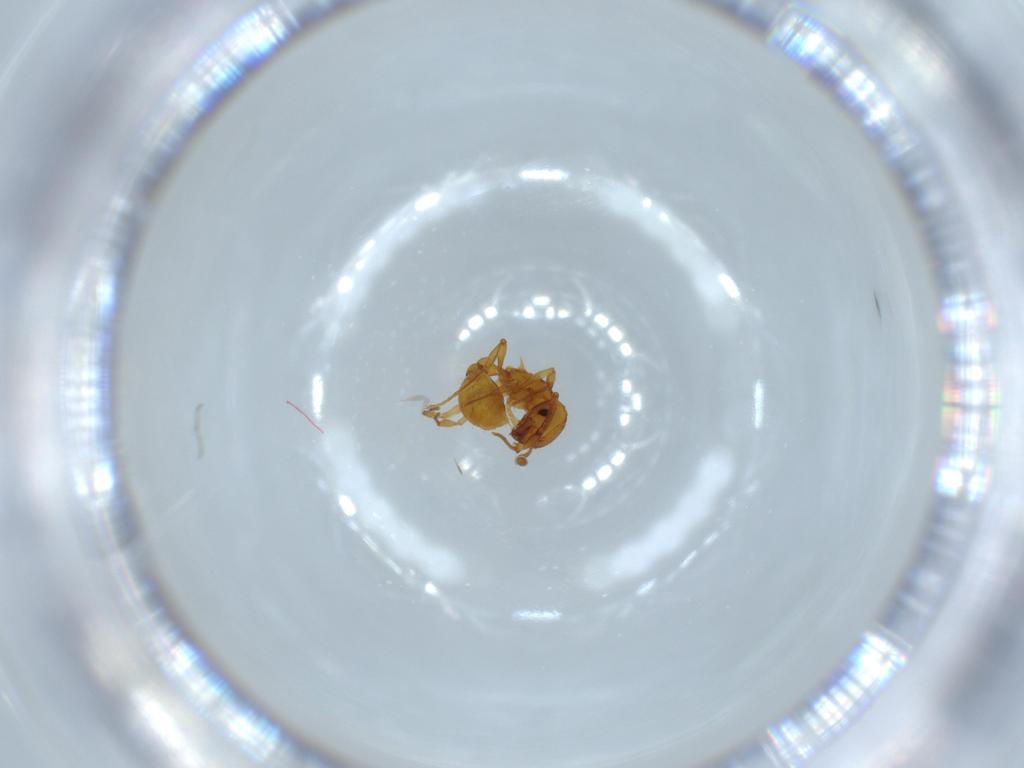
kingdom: Animalia
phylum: Arthropoda
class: Insecta
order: Hymenoptera
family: Formicidae
